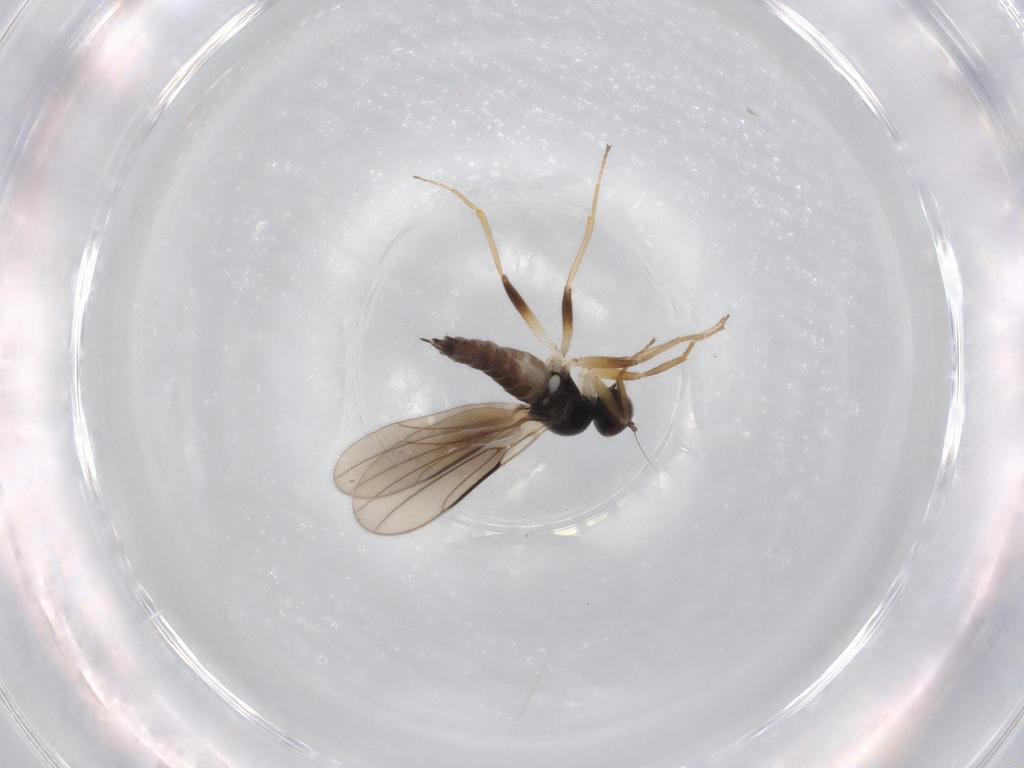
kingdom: Animalia
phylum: Arthropoda
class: Insecta
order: Diptera
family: Hybotidae
